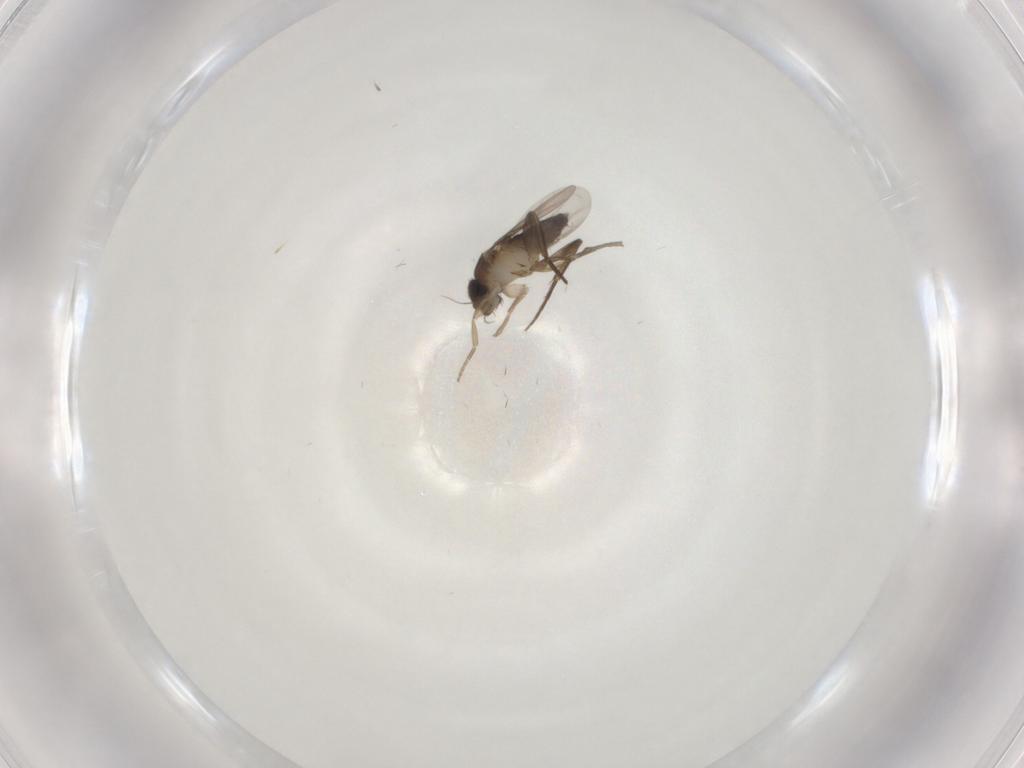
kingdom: Animalia
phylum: Arthropoda
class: Insecta
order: Diptera
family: Phoridae
